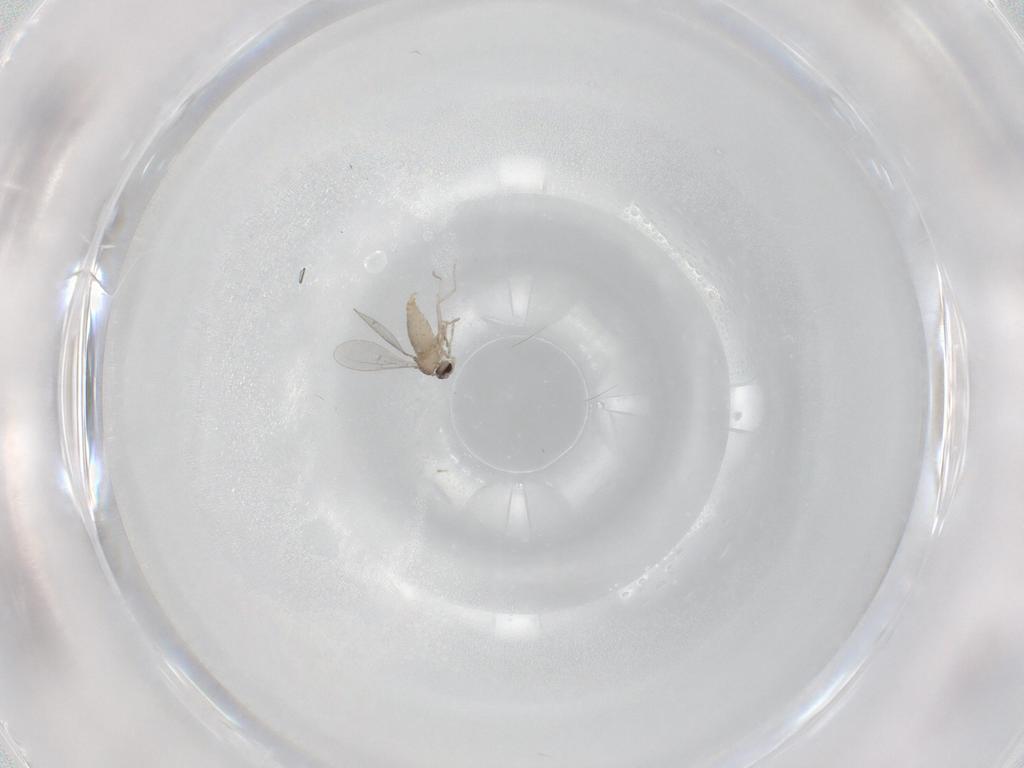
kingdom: Animalia
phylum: Arthropoda
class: Insecta
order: Diptera
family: Cecidomyiidae
